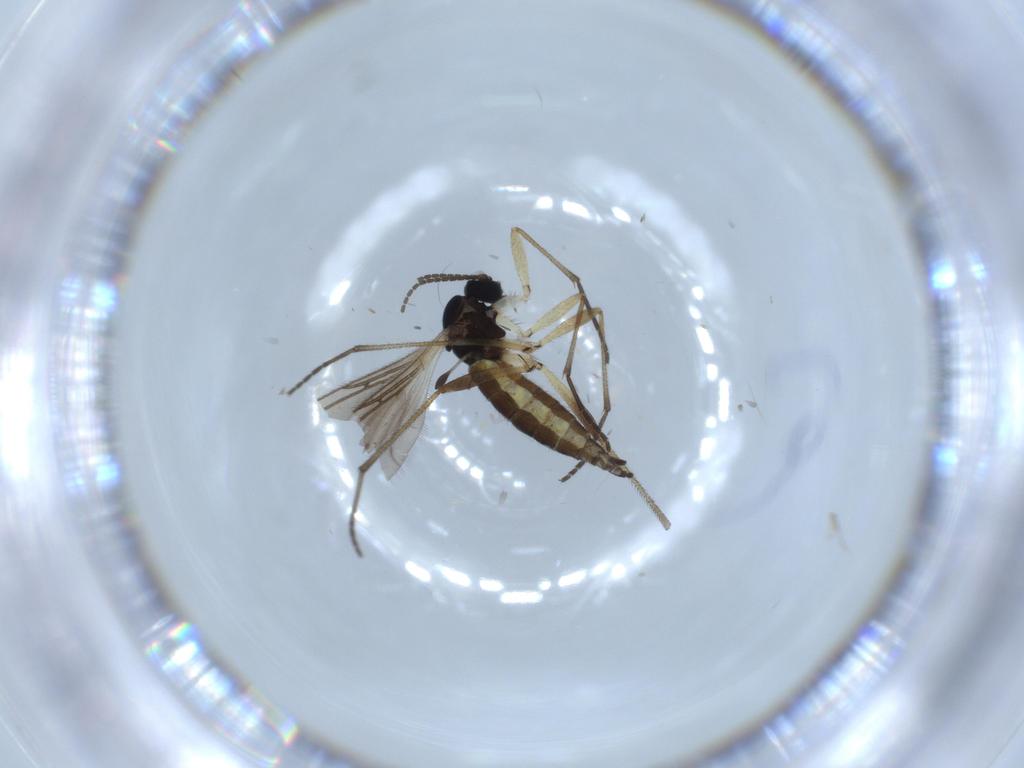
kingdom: Animalia
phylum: Arthropoda
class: Insecta
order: Diptera
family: Sciaridae
